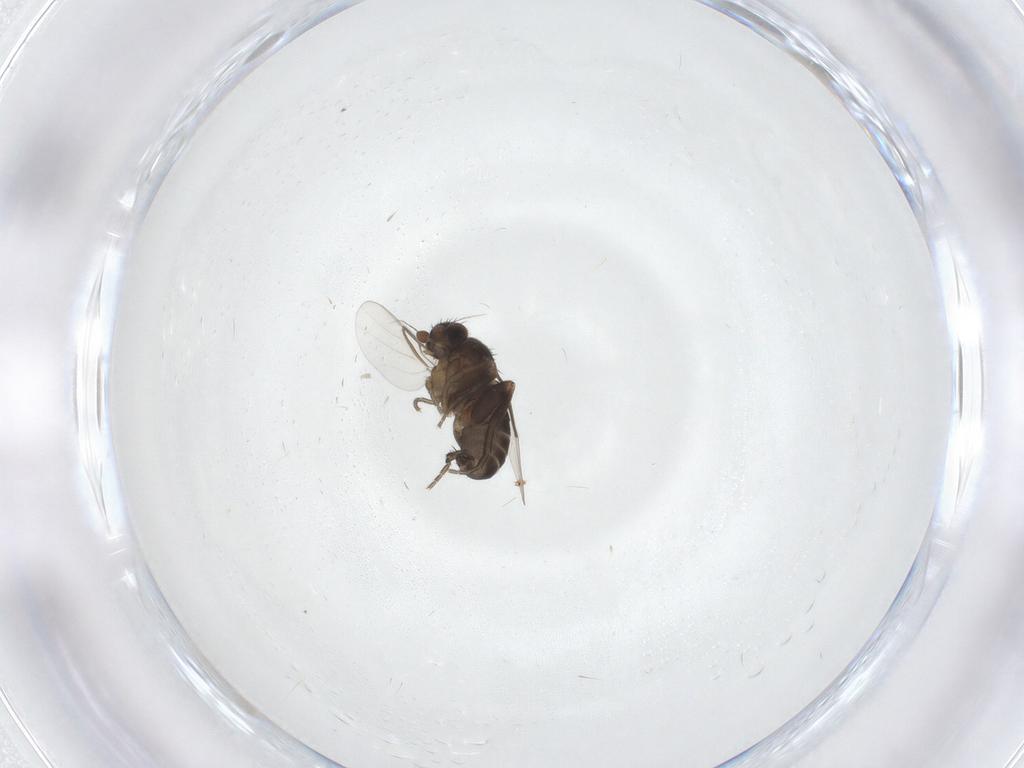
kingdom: Animalia
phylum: Arthropoda
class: Insecta
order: Diptera
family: Phoridae
